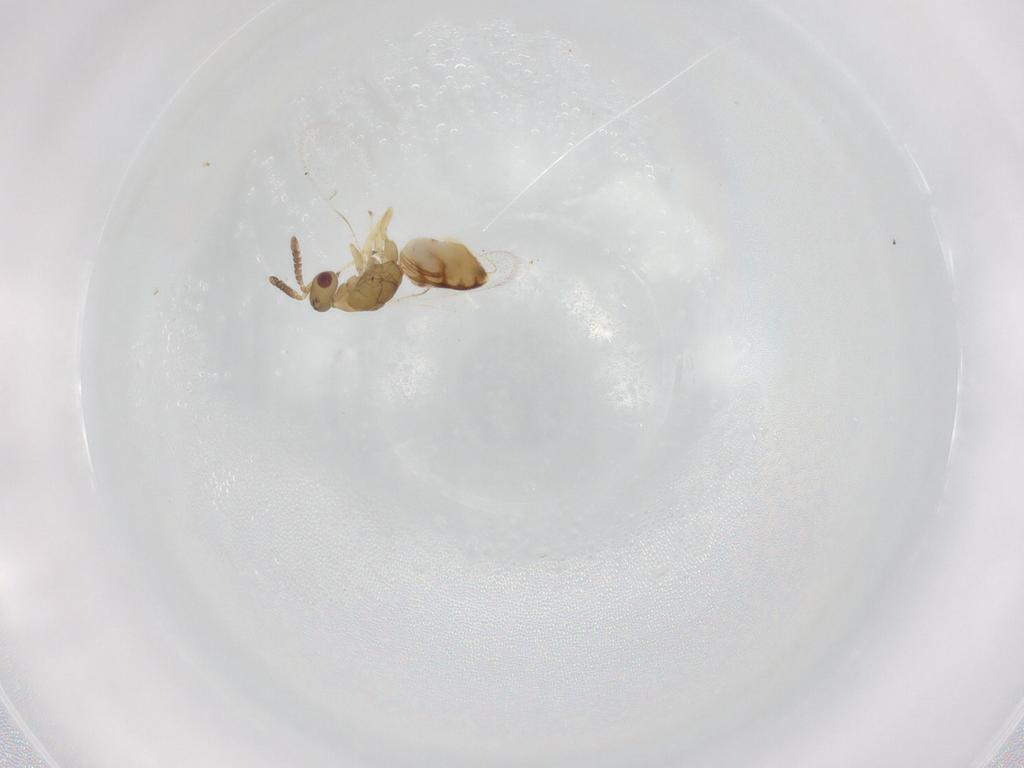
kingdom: Animalia
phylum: Arthropoda
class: Insecta
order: Hymenoptera
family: Agaonidae
